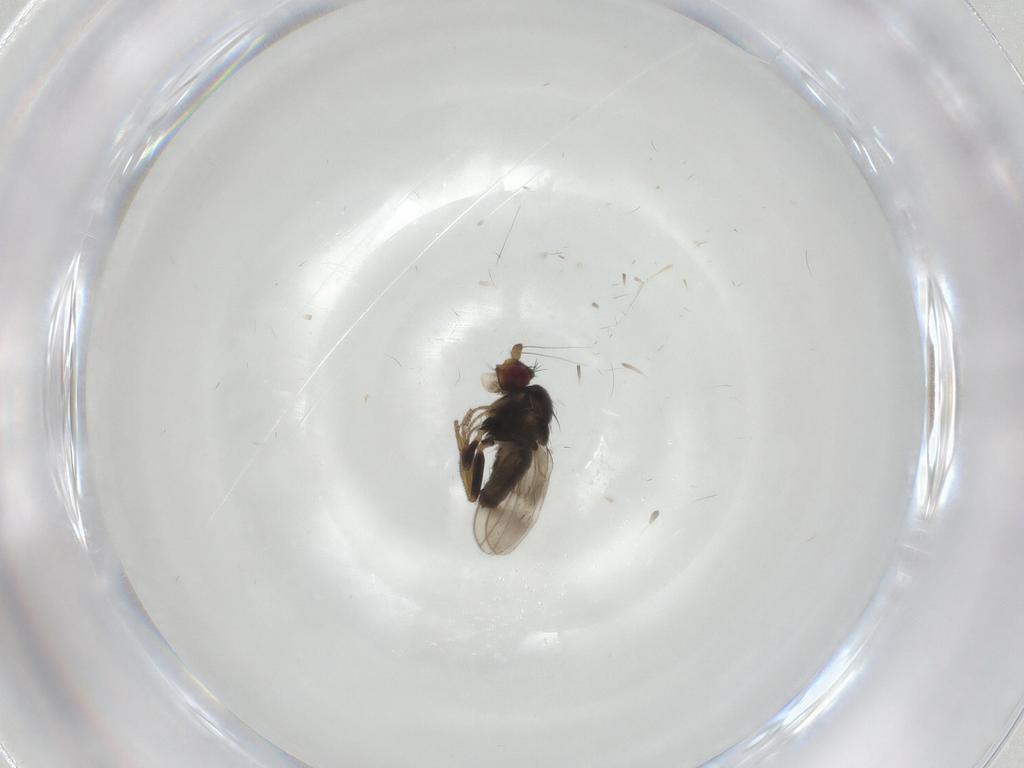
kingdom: Animalia
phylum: Arthropoda
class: Insecta
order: Diptera
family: Sphaeroceridae
